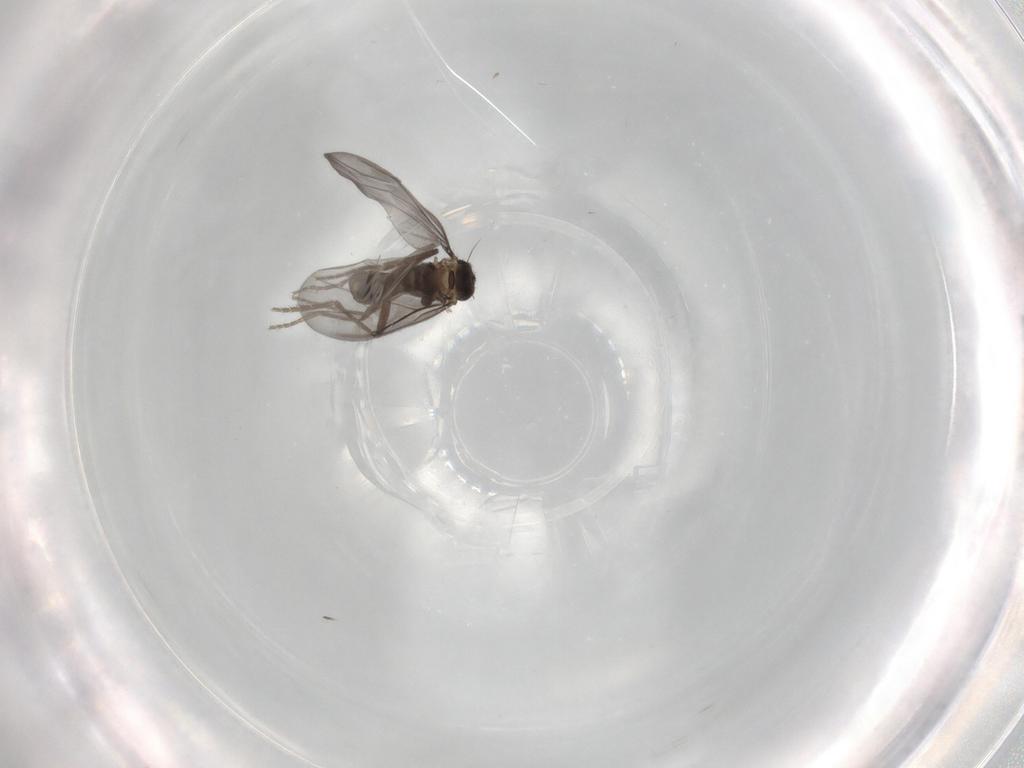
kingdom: Animalia
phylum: Arthropoda
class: Insecta
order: Diptera
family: Phoridae
